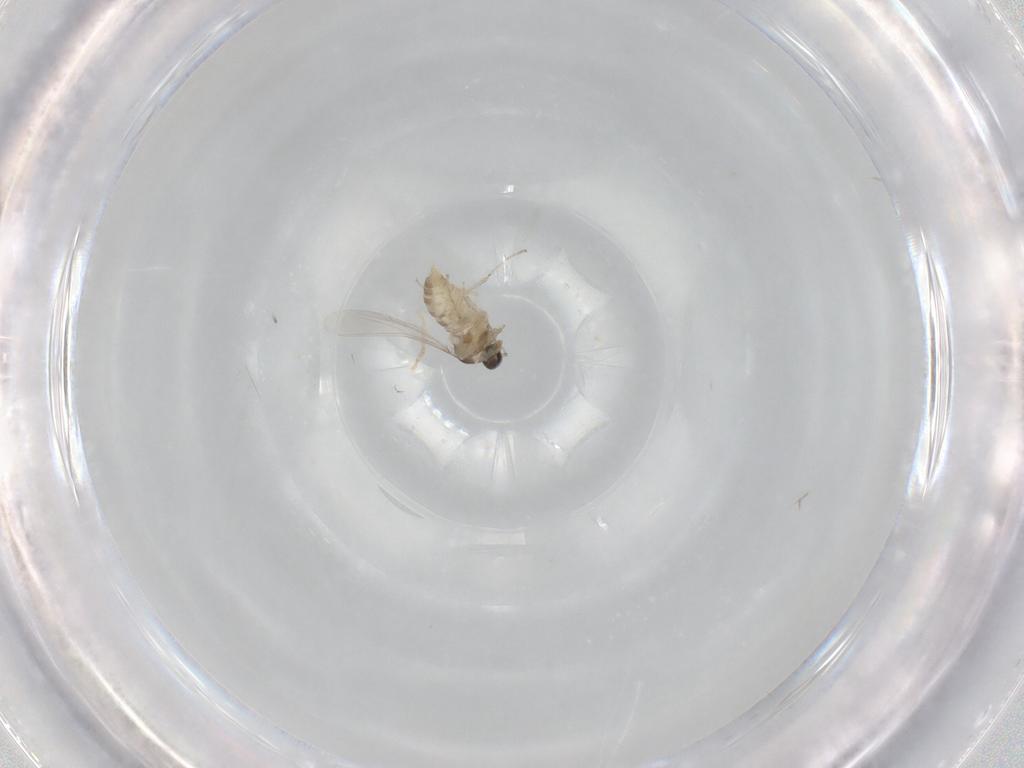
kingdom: Animalia
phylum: Arthropoda
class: Insecta
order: Diptera
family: Cecidomyiidae
